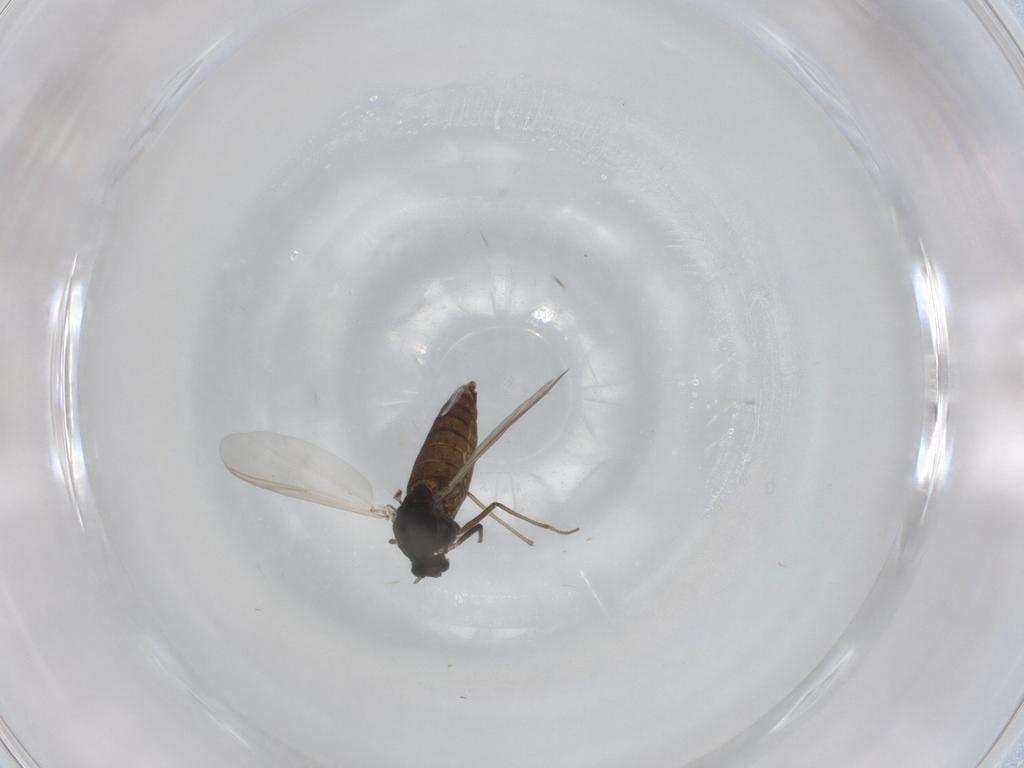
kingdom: Animalia
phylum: Arthropoda
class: Insecta
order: Diptera
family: Chironomidae
